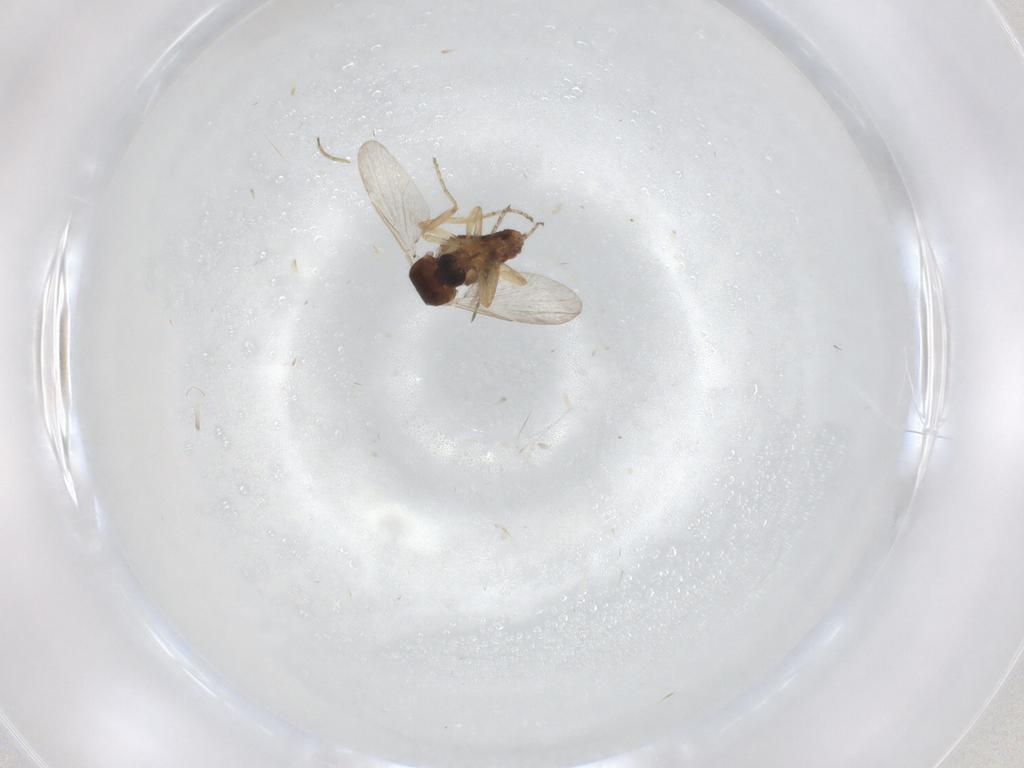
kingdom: Animalia
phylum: Arthropoda
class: Insecta
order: Diptera
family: Ceratopogonidae
